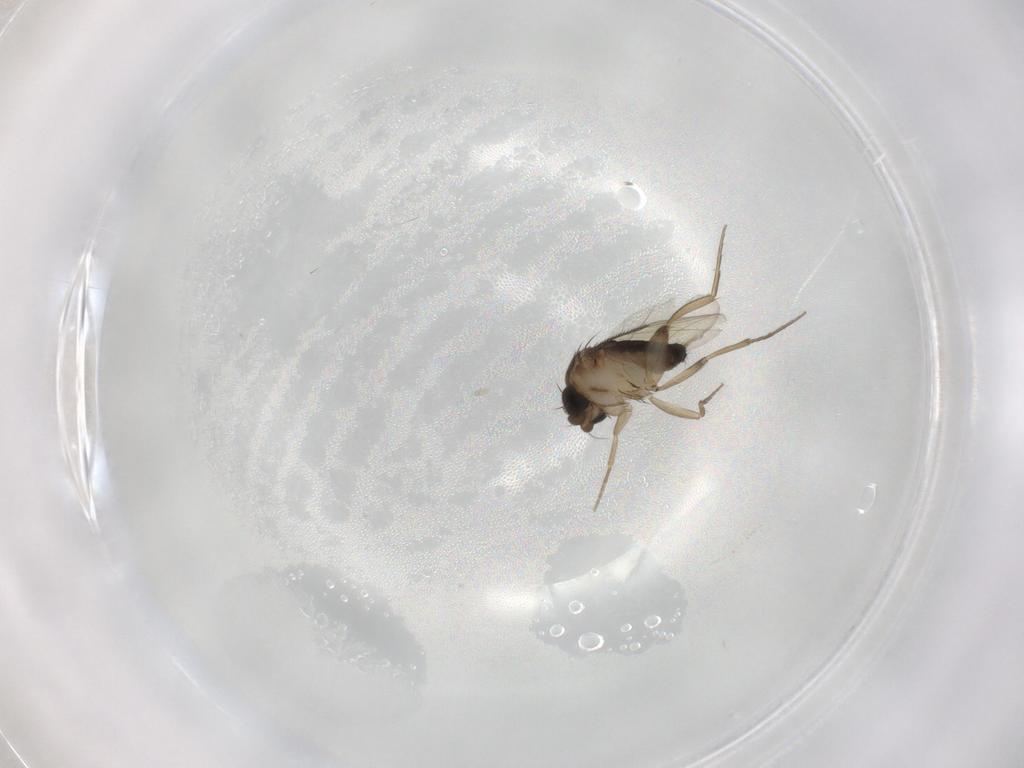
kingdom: Animalia
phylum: Arthropoda
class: Insecta
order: Diptera
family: Phoridae
